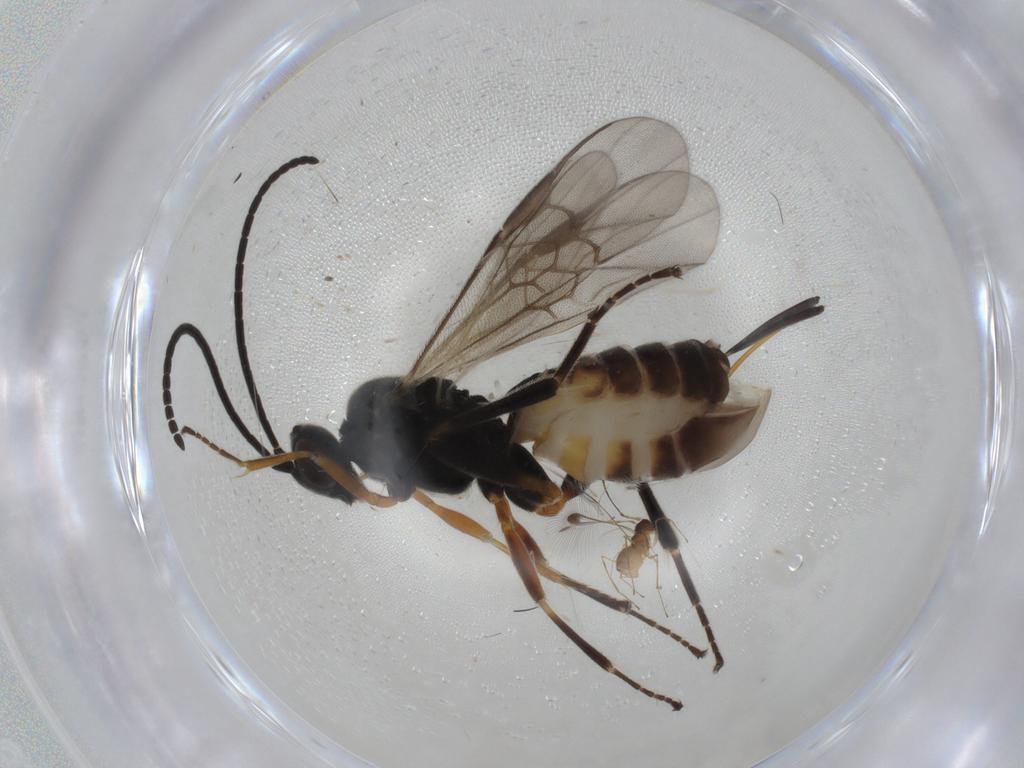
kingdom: Animalia
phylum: Arthropoda
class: Insecta
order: Hymenoptera
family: Braconidae
